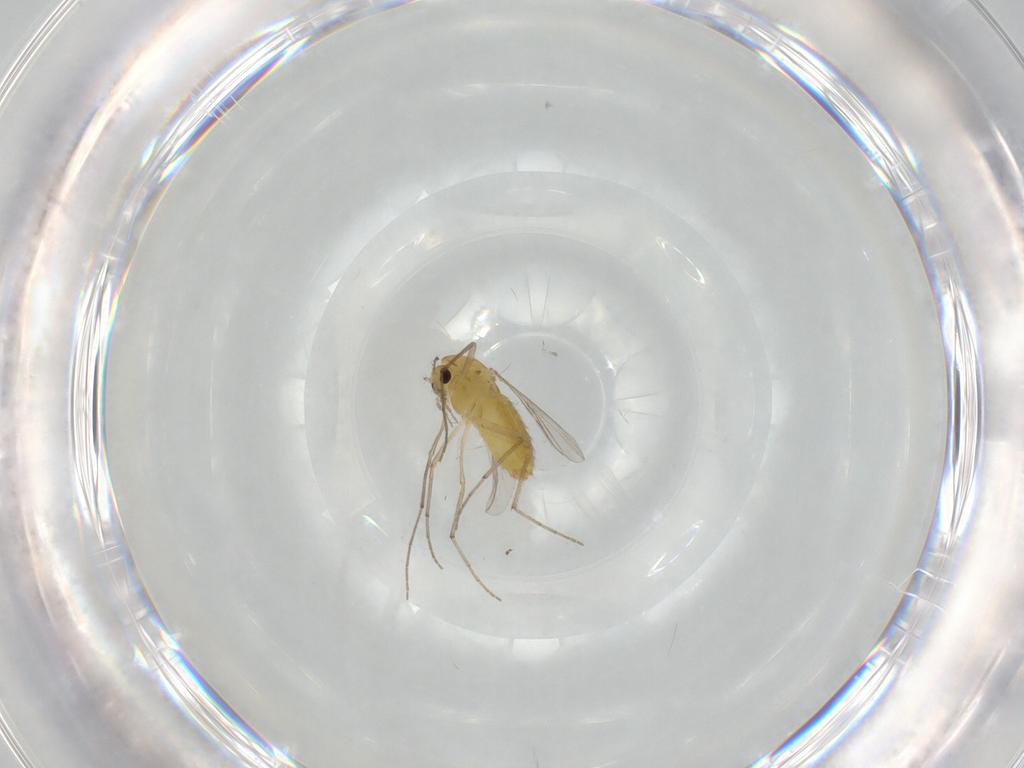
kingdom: Animalia
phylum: Arthropoda
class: Insecta
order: Diptera
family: Chironomidae
